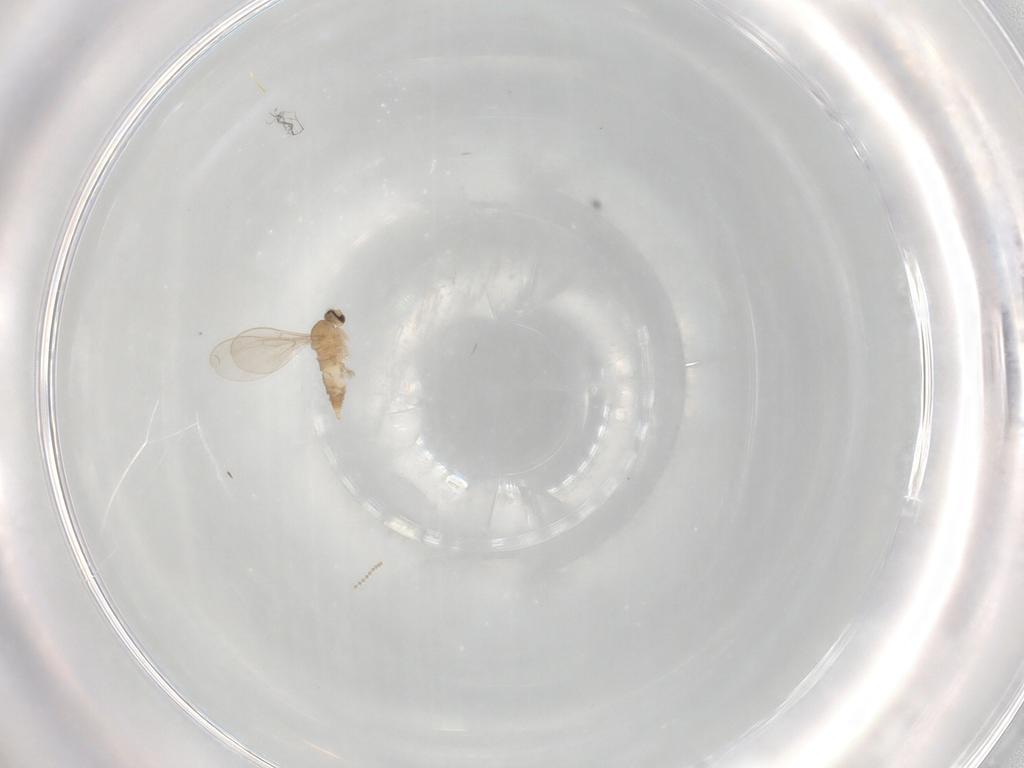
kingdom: Animalia
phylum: Arthropoda
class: Insecta
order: Diptera
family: Cecidomyiidae
